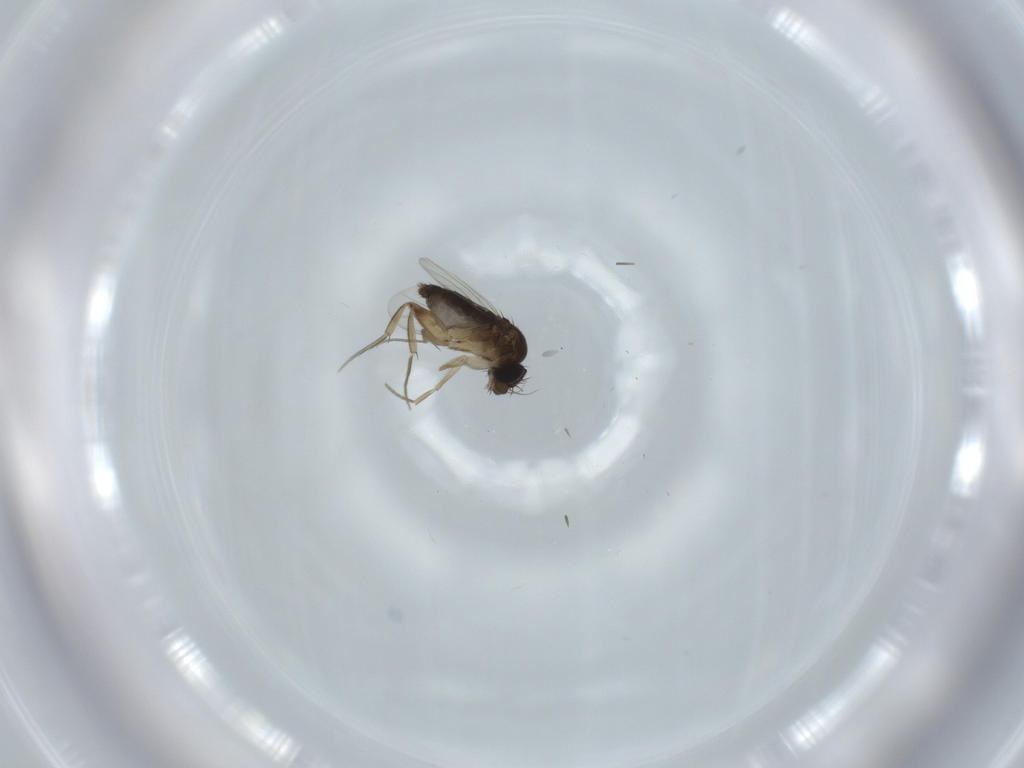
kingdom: Animalia
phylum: Arthropoda
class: Insecta
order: Diptera
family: Phoridae
